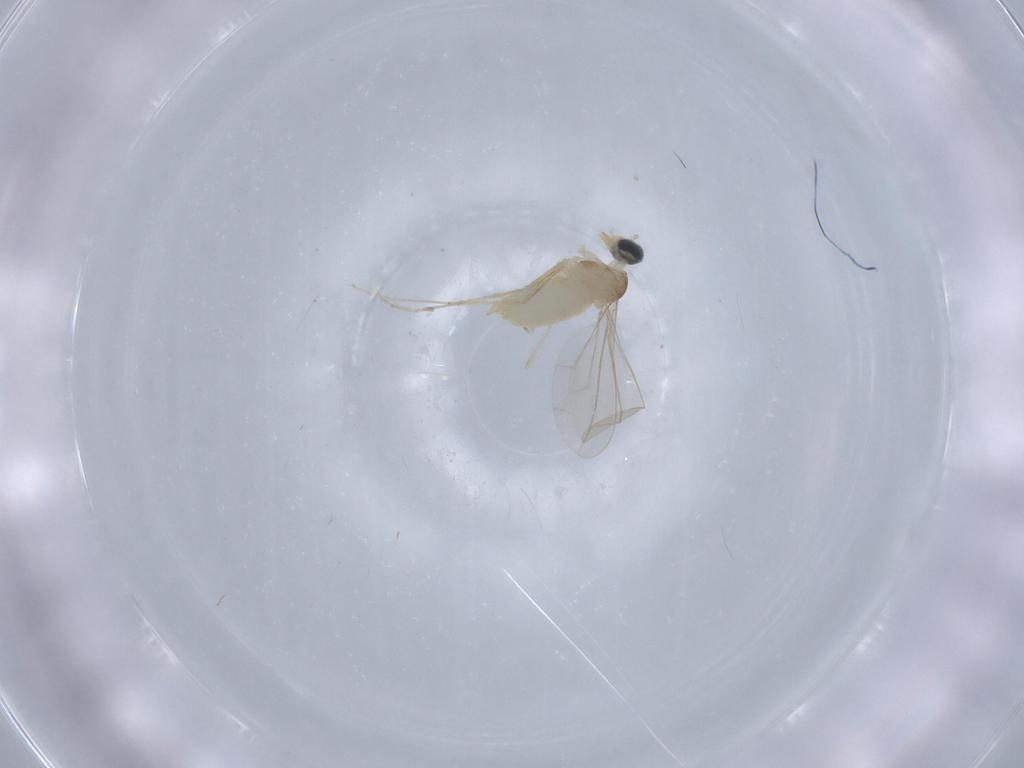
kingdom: Animalia
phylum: Arthropoda
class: Insecta
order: Diptera
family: Cecidomyiidae
